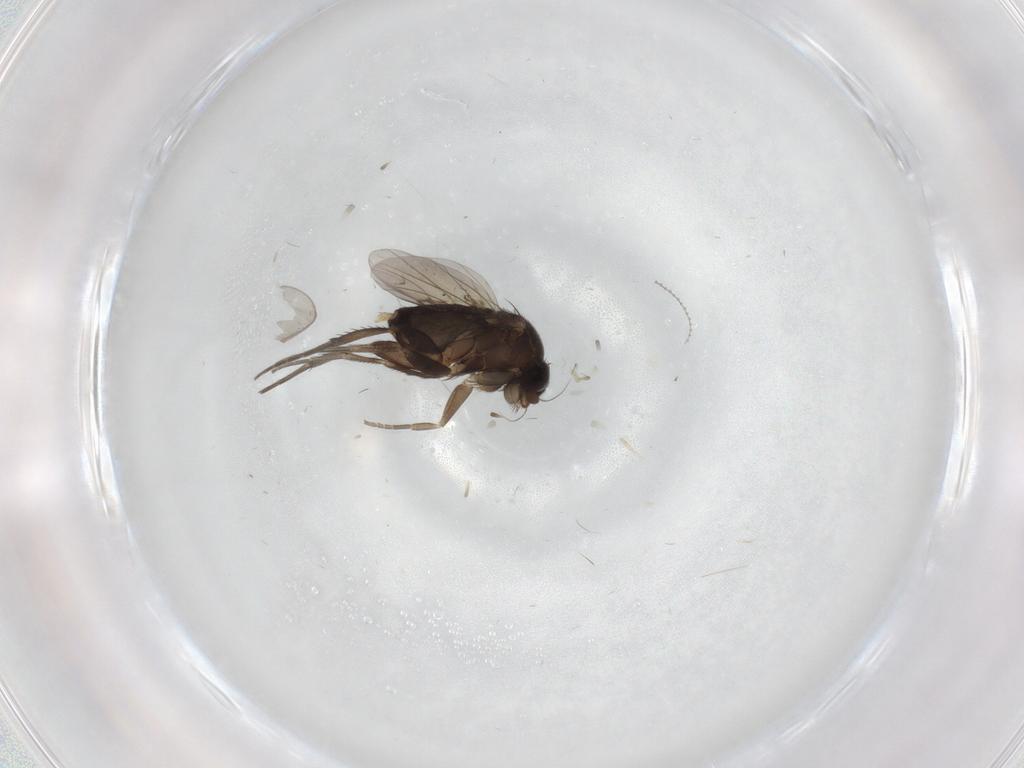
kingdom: Animalia
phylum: Arthropoda
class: Insecta
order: Diptera
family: Phoridae
